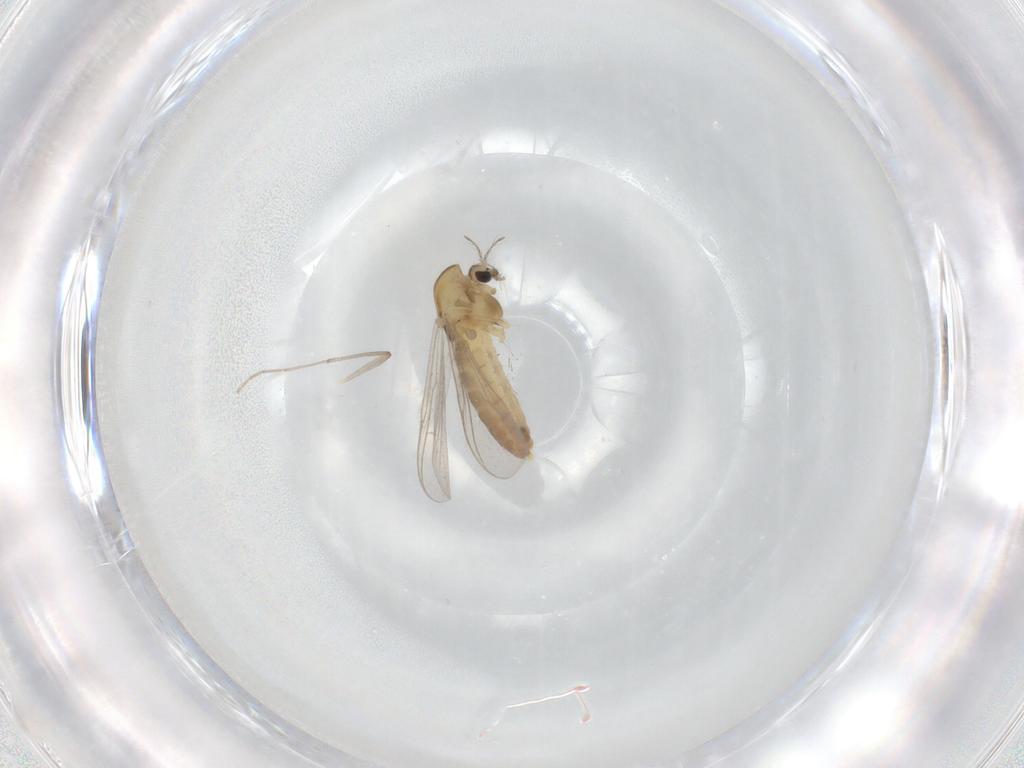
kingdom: Animalia
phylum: Arthropoda
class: Insecta
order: Diptera
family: Chironomidae
